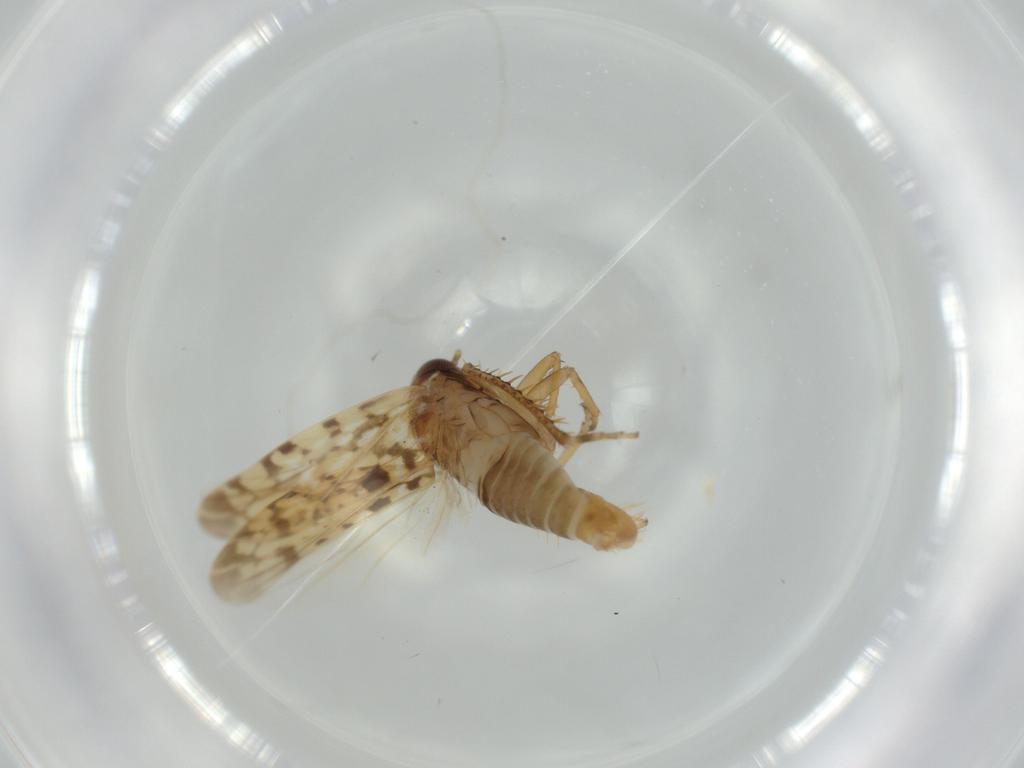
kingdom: Animalia
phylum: Arthropoda
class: Insecta
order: Hemiptera
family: Cicadellidae
